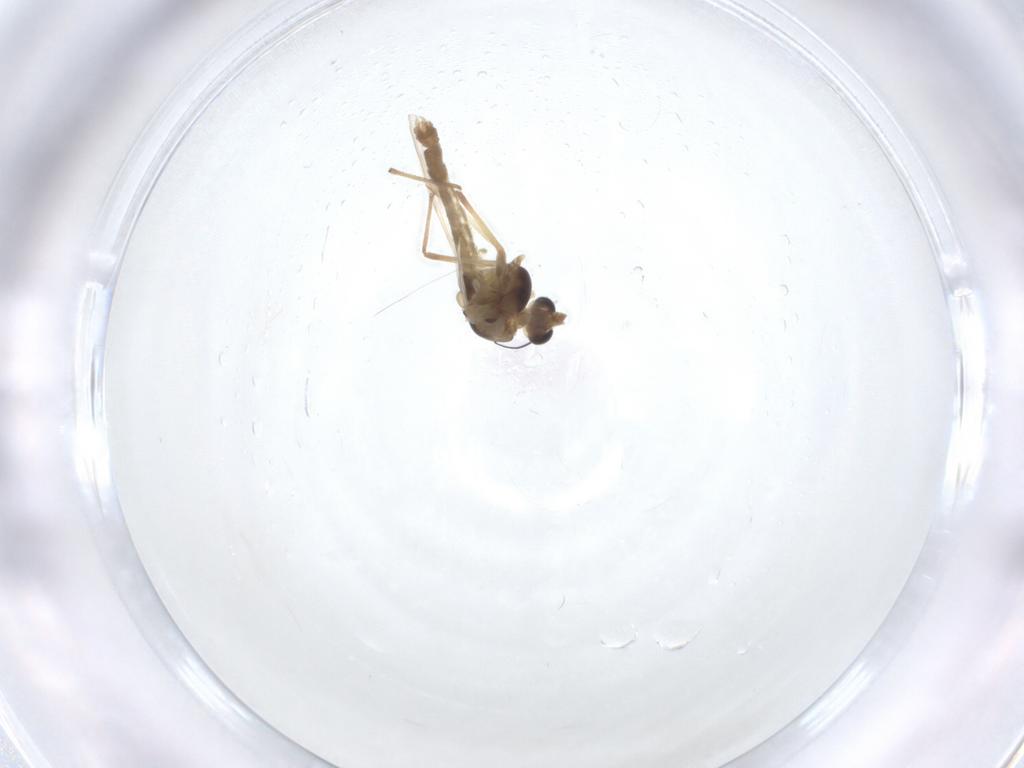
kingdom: Animalia
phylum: Arthropoda
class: Insecta
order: Diptera
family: Chironomidae
